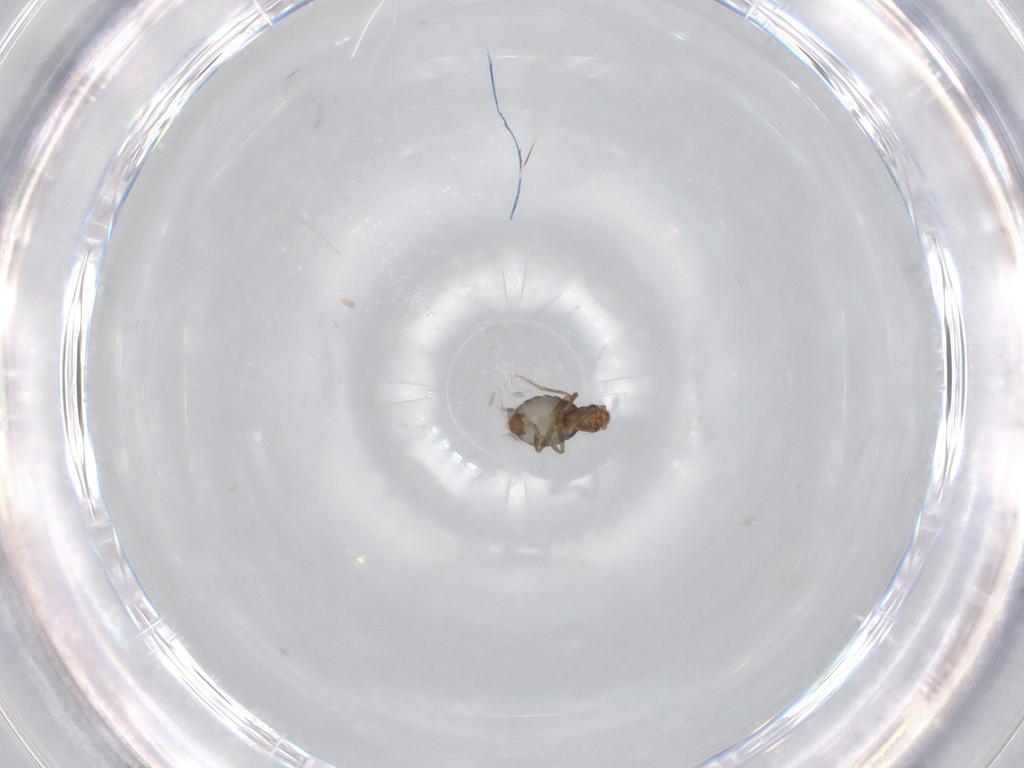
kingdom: Animalia
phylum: Arthropoda
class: Insecta
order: Diptera
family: Phoridae
